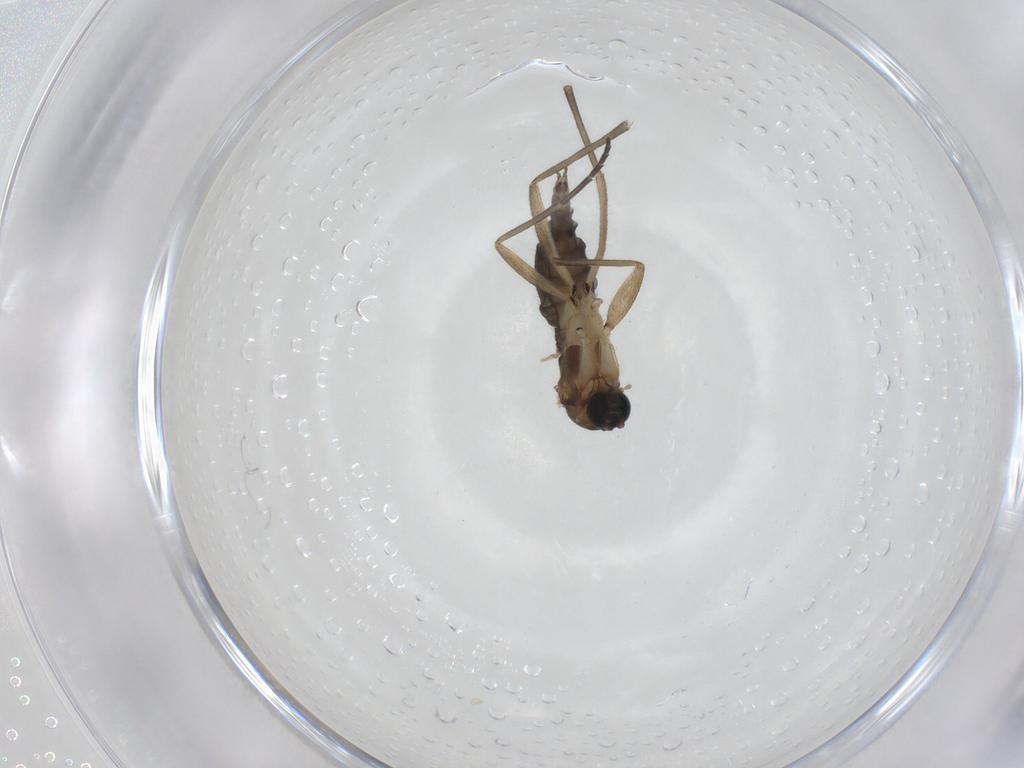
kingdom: Animalia
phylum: Arthropoda
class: Insecta
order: Diptera
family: Sciaridae
